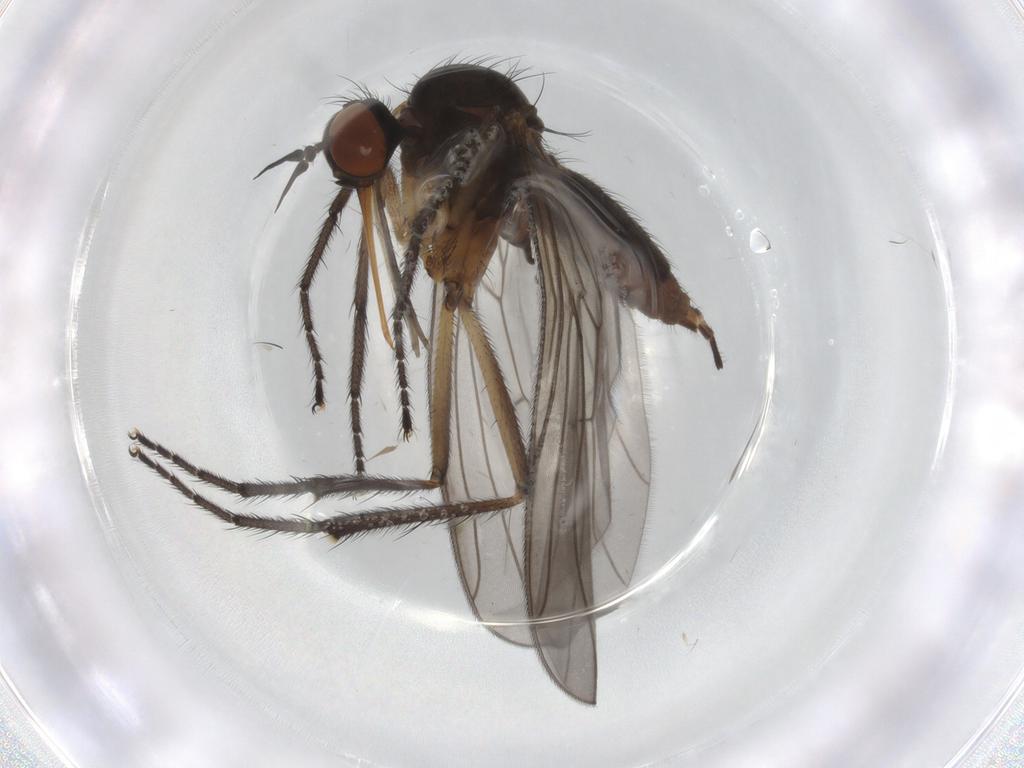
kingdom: Animalia
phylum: Arthropoda
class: Insecta
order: Diptera
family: Empididae
